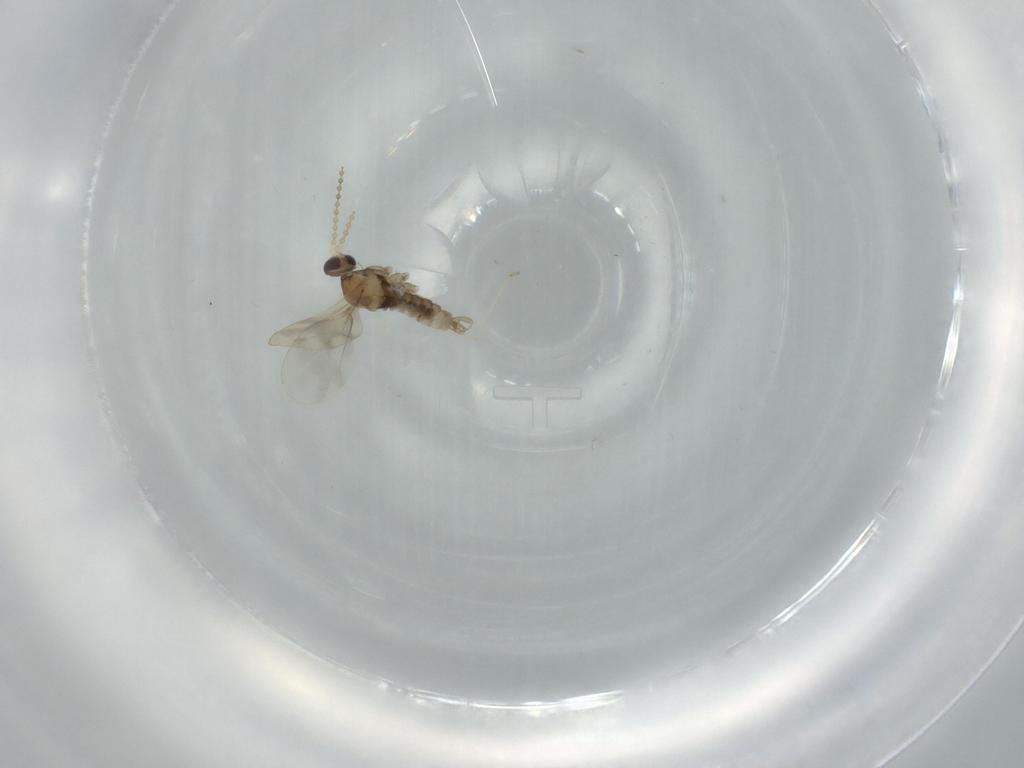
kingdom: Animalia
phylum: Arthropoda
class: Insecta
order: Diptera
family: Cecidomyiidae
